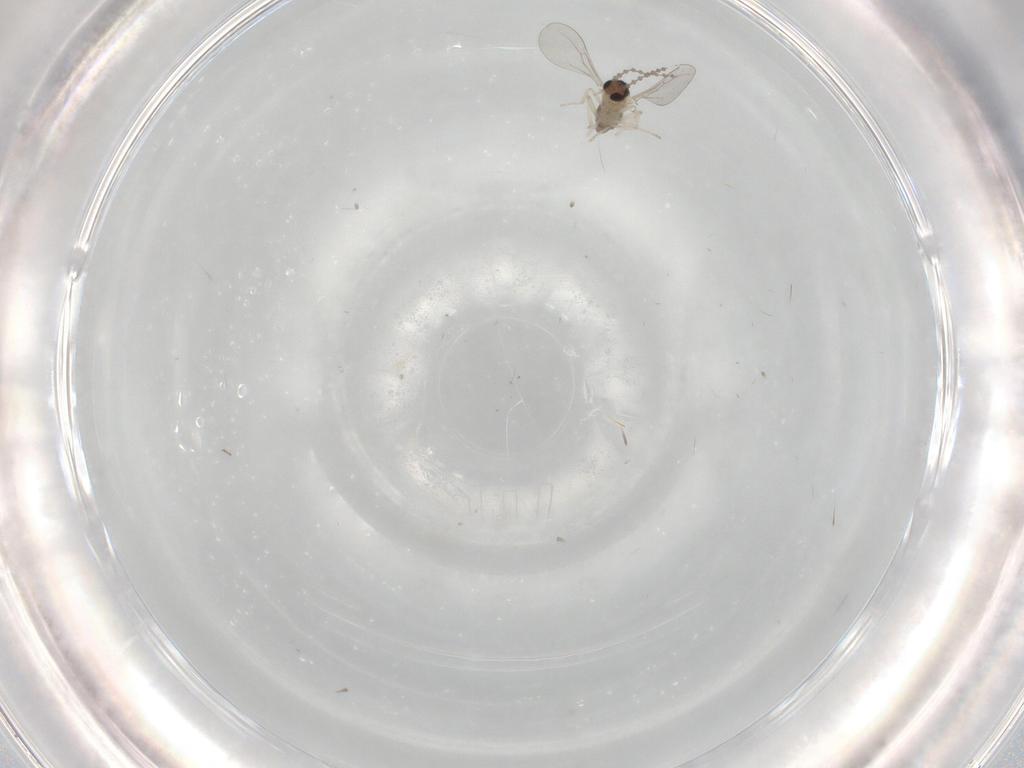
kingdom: Animalia
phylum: Arthropoda
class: Insecta
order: Diptera
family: Cecidomyiidae
